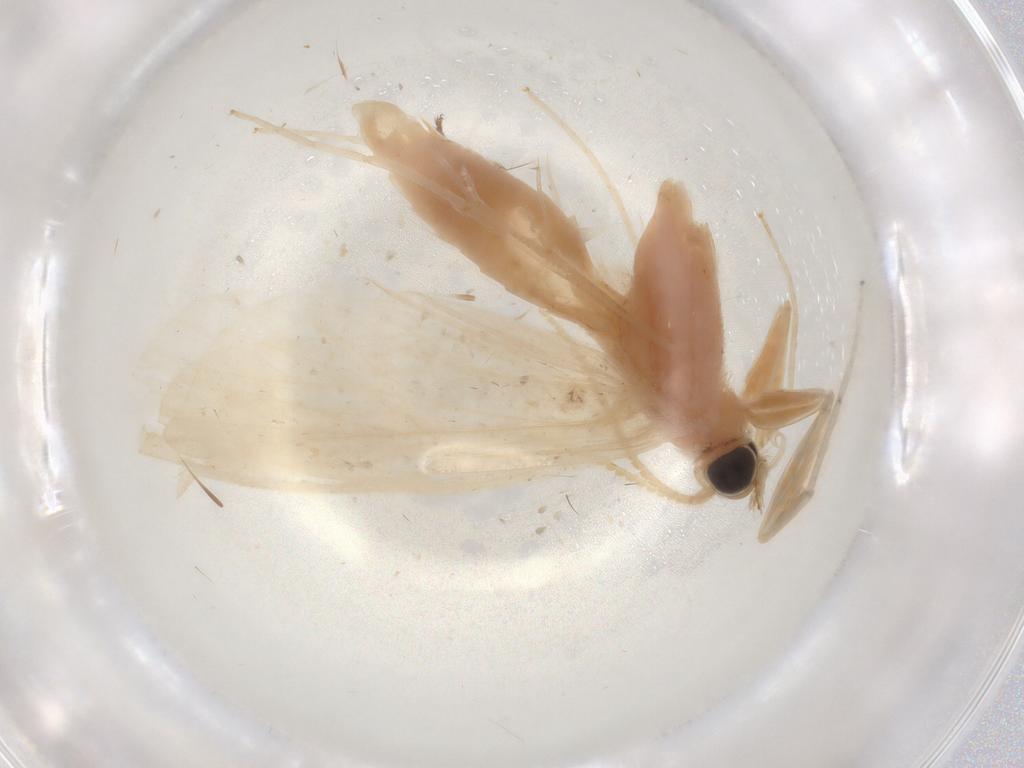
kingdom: Animalia
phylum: Arthropoda
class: Insecta
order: Lepidoptera
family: Crambidae
